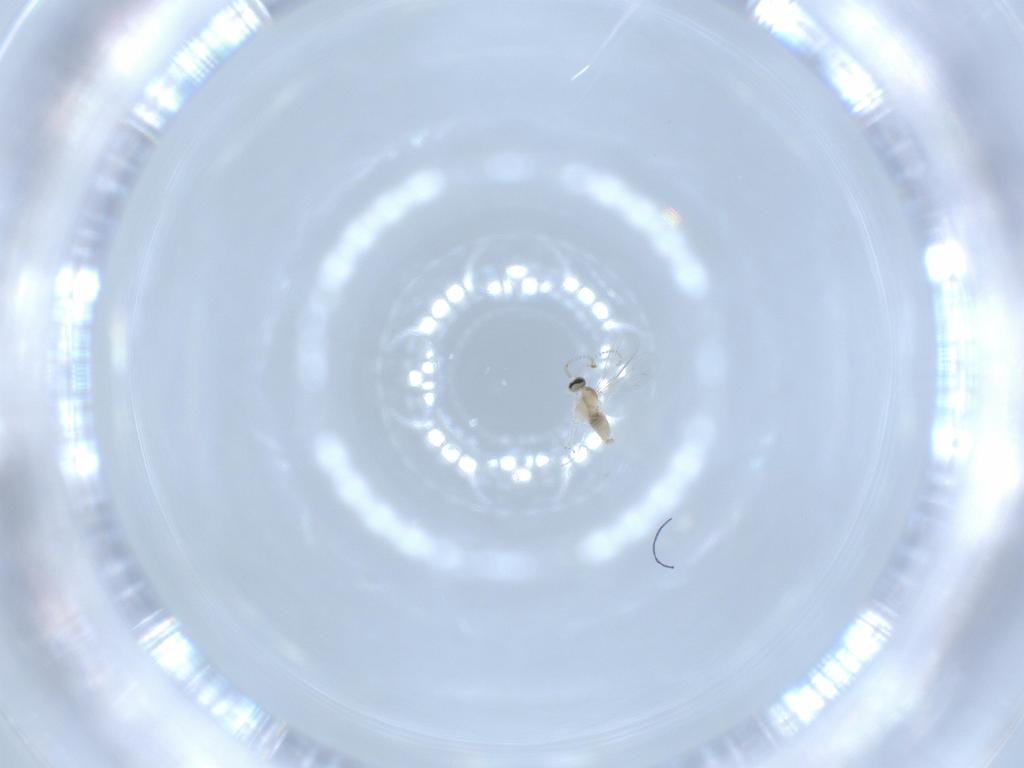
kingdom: Animalia
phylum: Arthropoda
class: Insecta
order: Diptera
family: Cecidomyiidae
